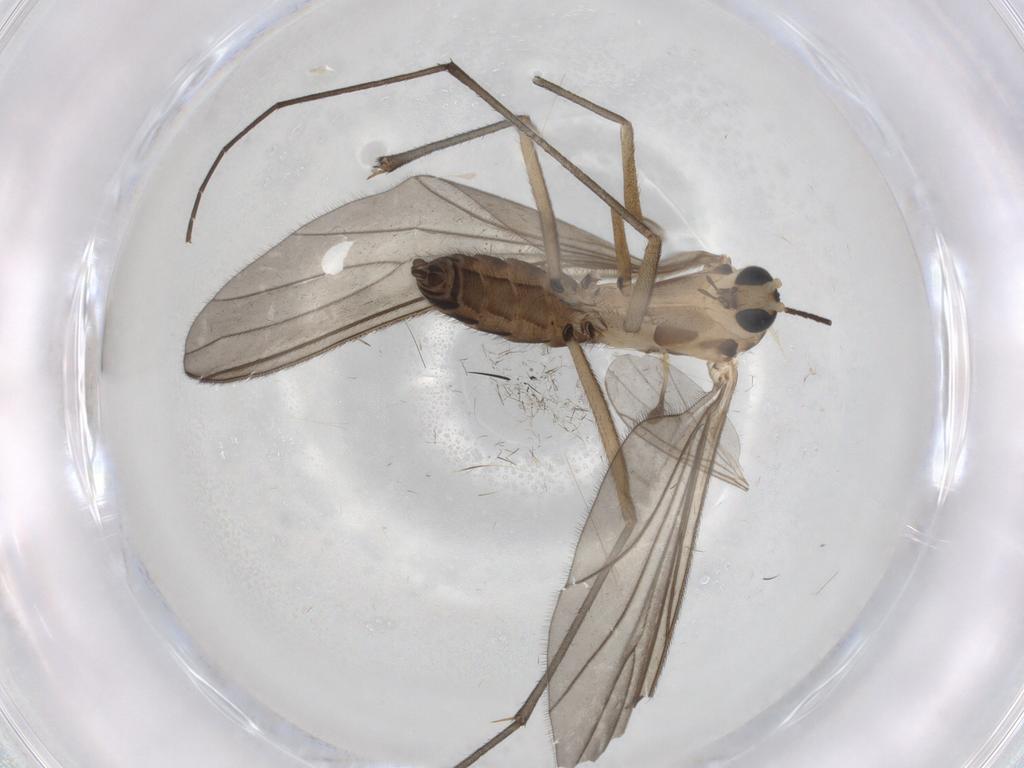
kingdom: Animalia
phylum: Arthropoda
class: Insecta
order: Diptera
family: Sciaridae
